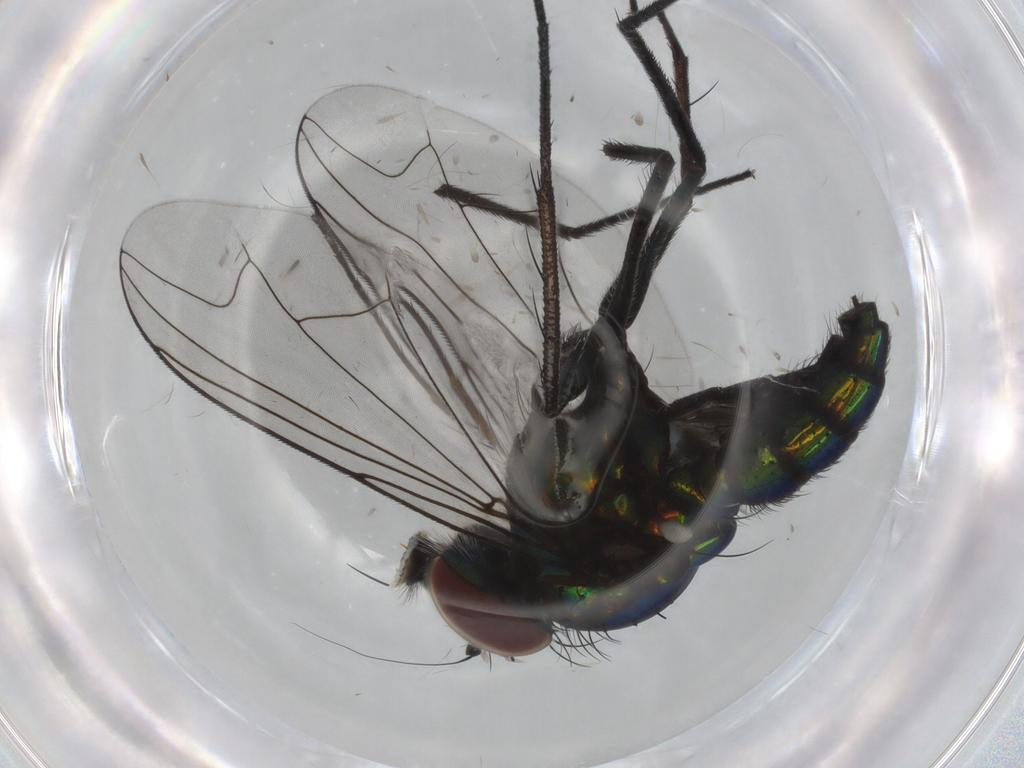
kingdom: Animalia
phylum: Arthropoda
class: Insecta
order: Diptera
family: Dolichopodidae
